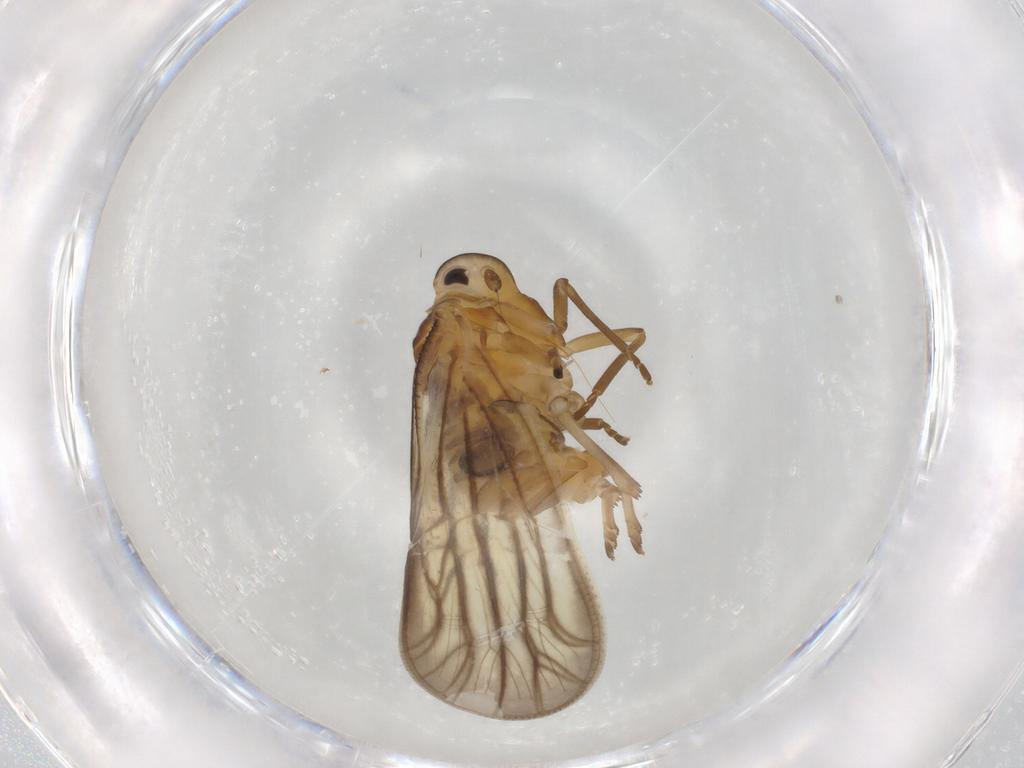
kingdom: Animalia
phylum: Arthropoda
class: Insecta
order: Hemiptera
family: Meenoplidae
